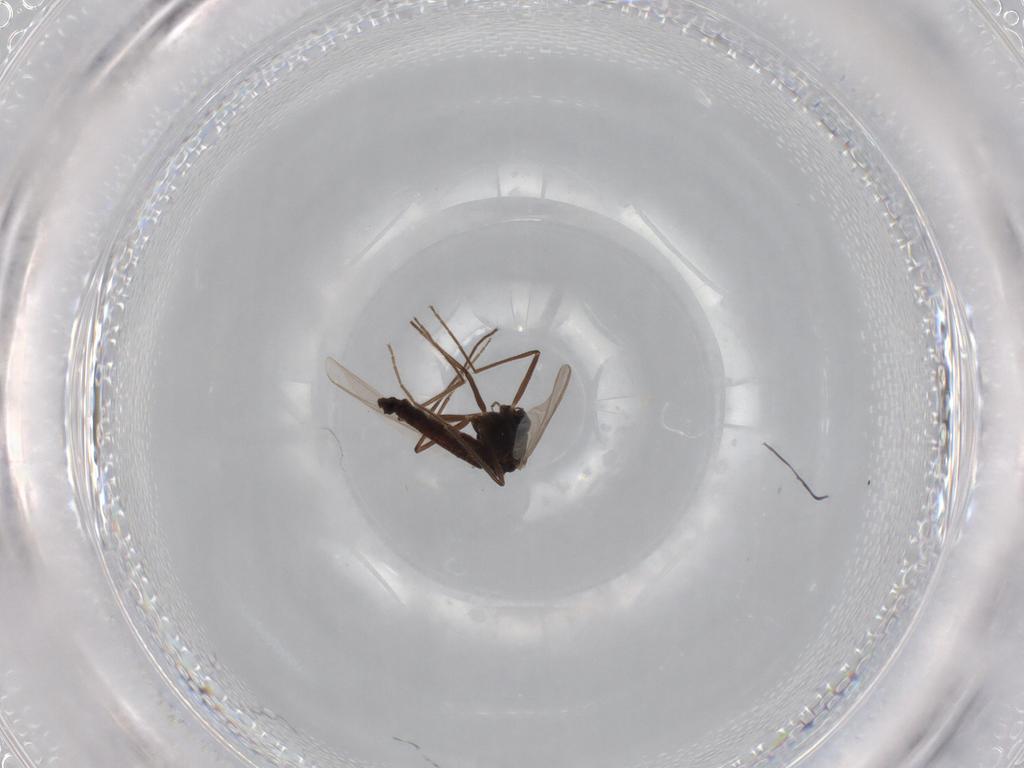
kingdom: Animalia
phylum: Arthropoda
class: Insecta
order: Diptera
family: Chironomidae
